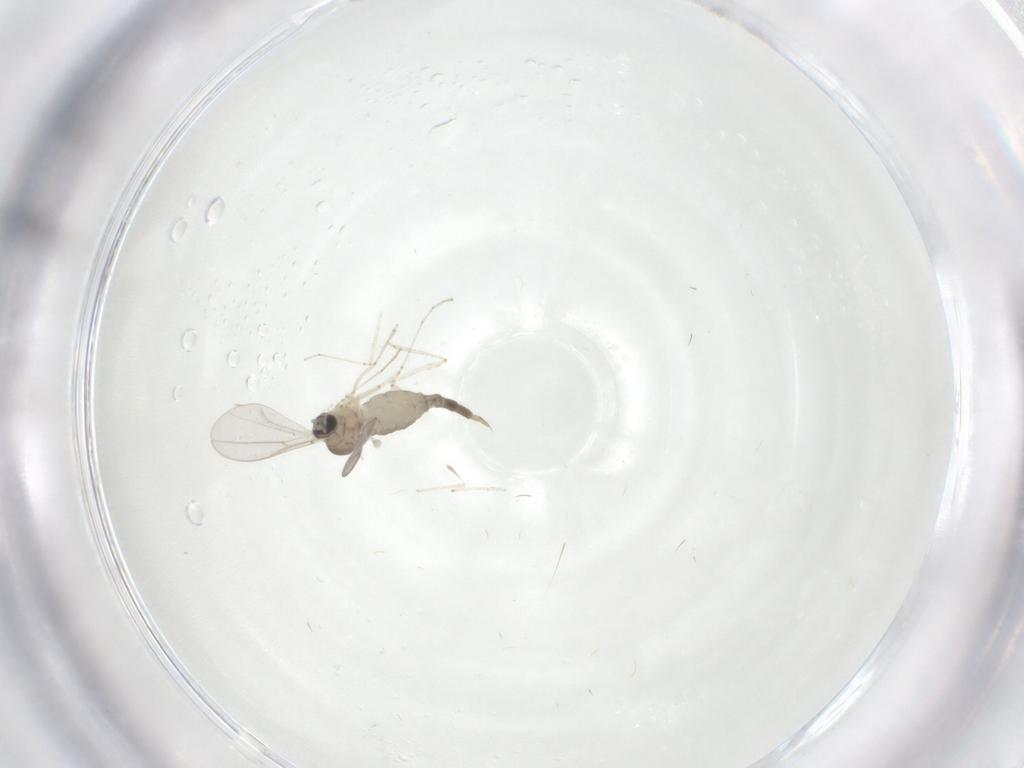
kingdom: Animalia
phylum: Arthropoda
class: Insecta
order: Diptera
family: Cecidomyiidae
